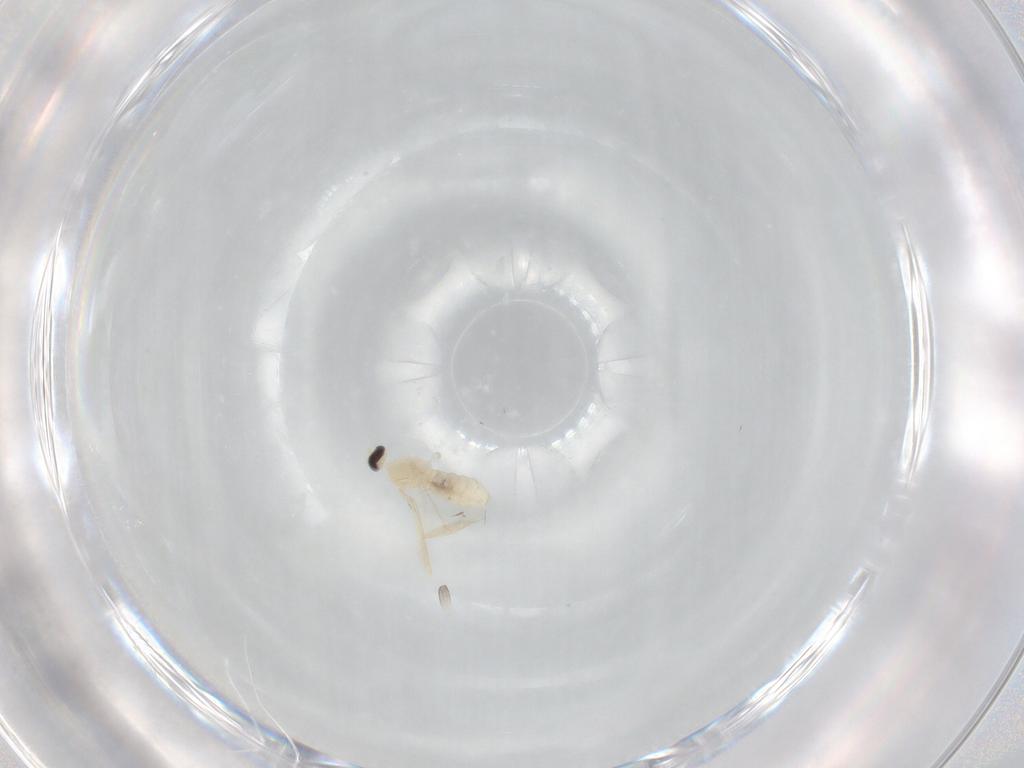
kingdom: Animalia
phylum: Arthropoda
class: Insecta
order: Diptera
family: Cecidomyiidae
